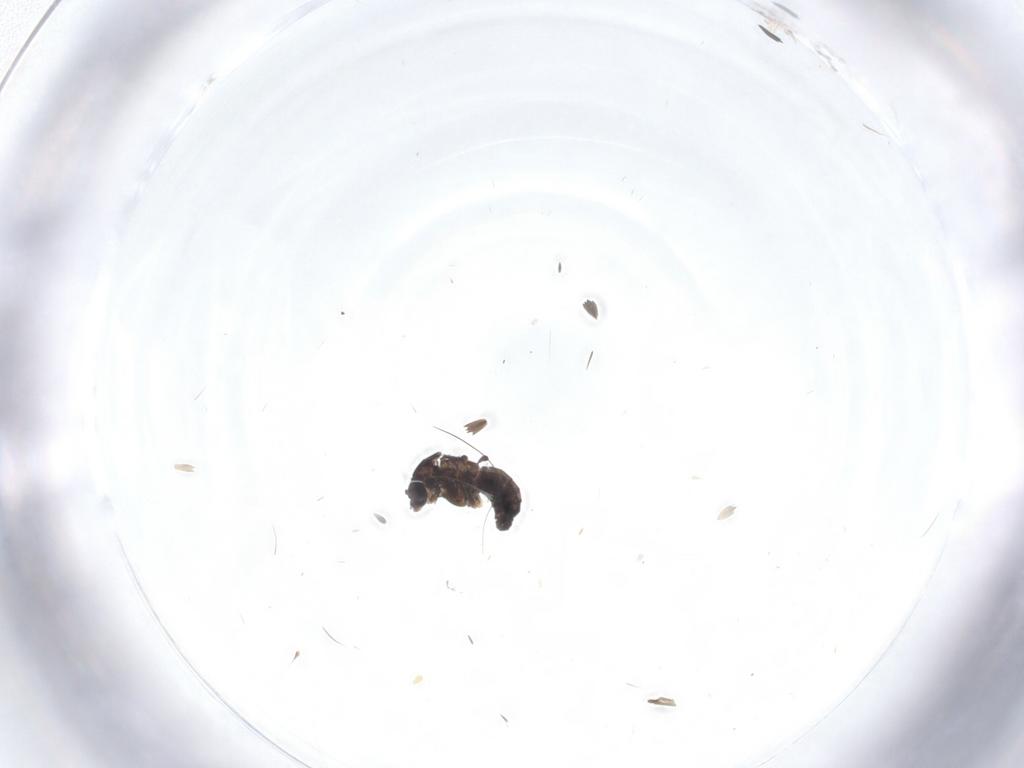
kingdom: Animalia
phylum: Arthropoda
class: Insecta
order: Diptera
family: Chironomidae
